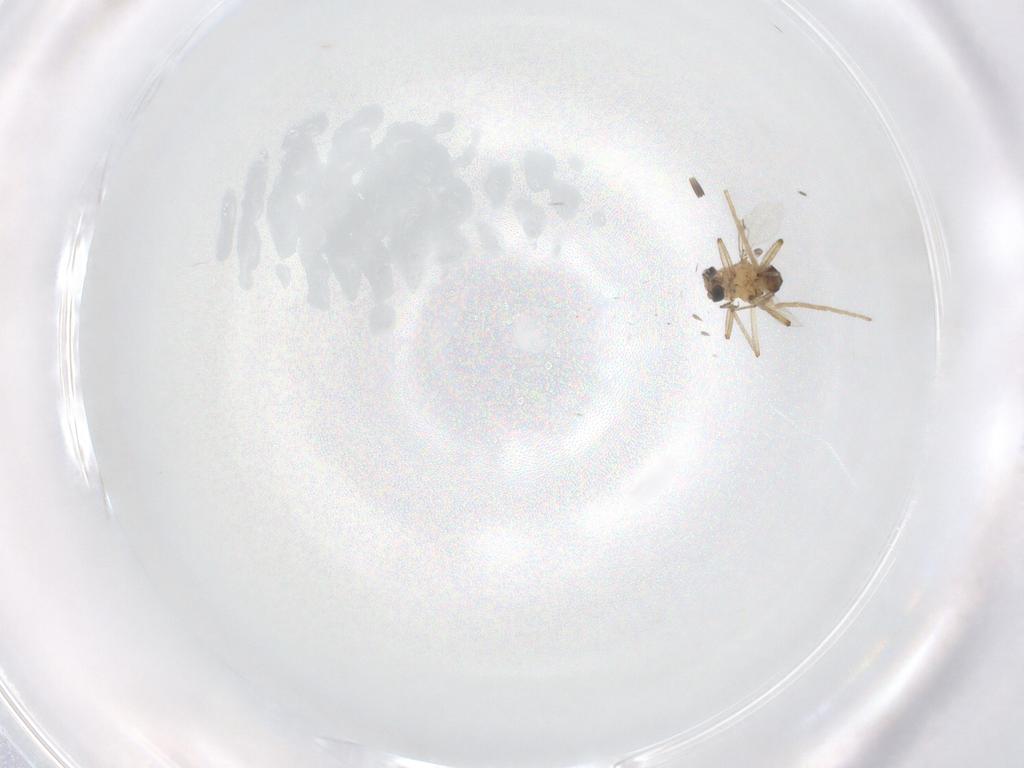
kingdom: Animalia
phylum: Arthropoda
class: Insecta
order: Diptera
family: Ceratopogonidae
